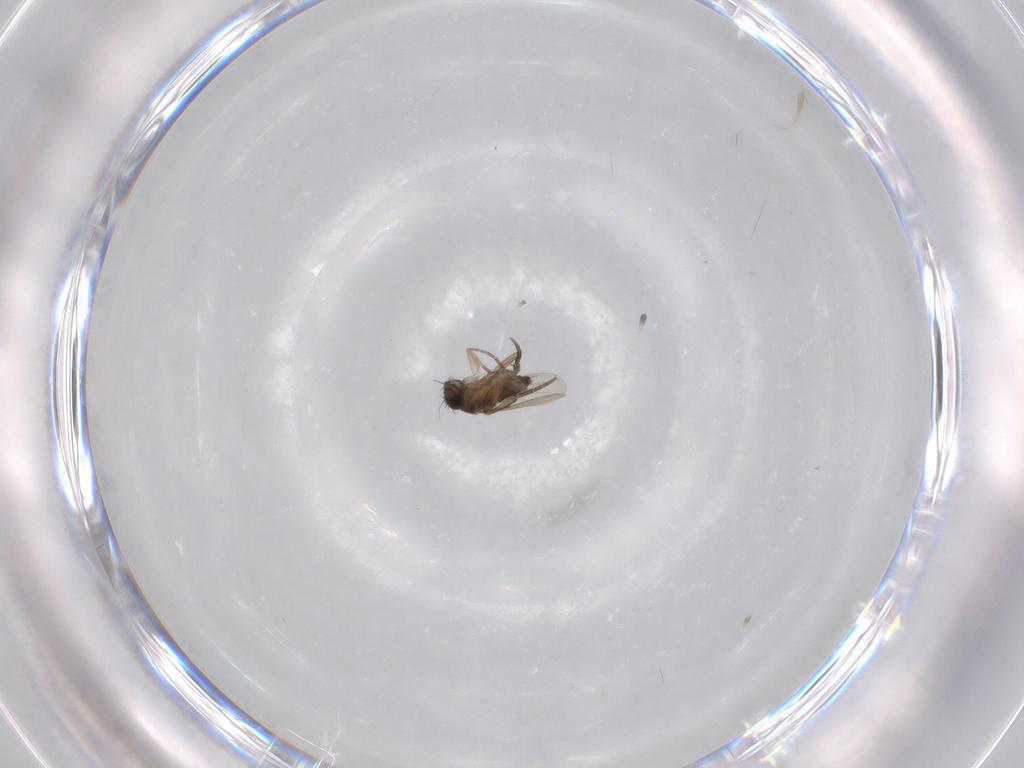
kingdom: Animalia
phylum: Arthropoda
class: Insecta
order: Diptera
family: Phoridae
